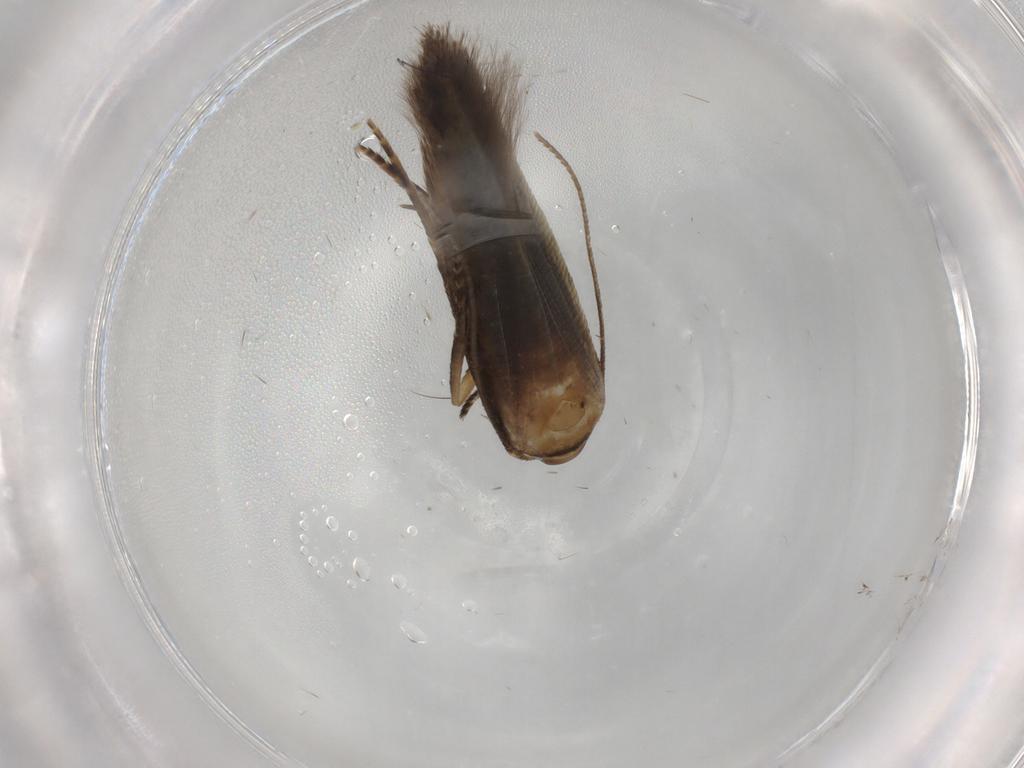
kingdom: Animalia
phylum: Arthropoda
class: Insecta
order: Lepidoptera
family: Cosmopterigidae
